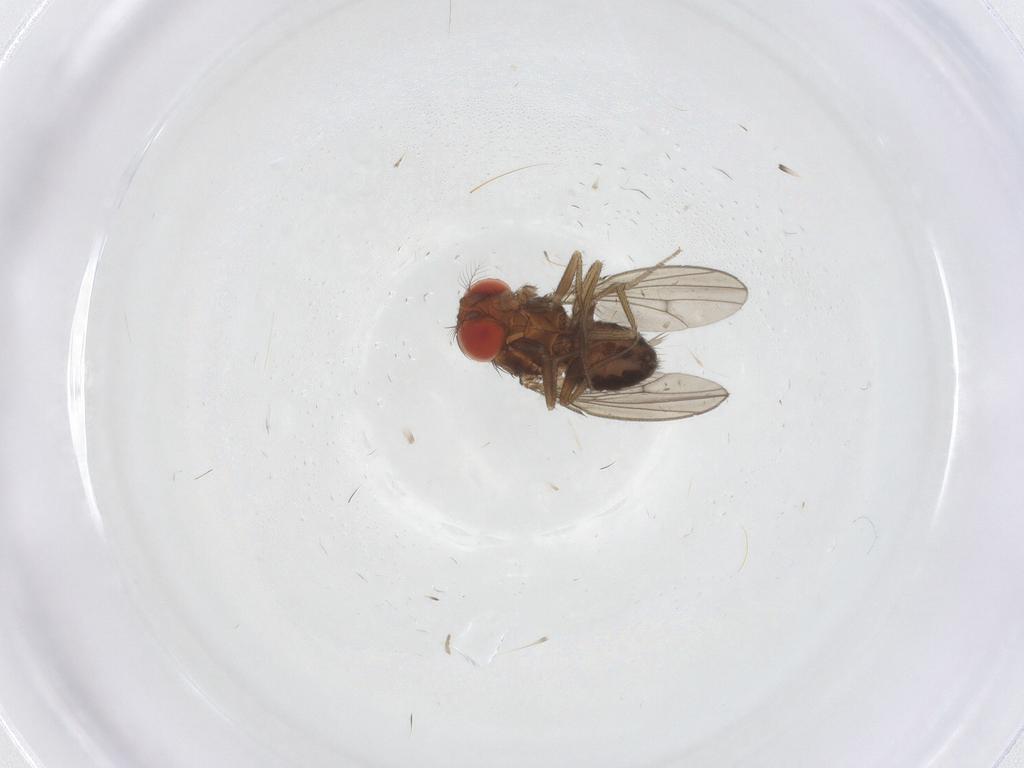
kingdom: Animalia
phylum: Arthropoda
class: Insecta
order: Diptera
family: Drosophilidae
